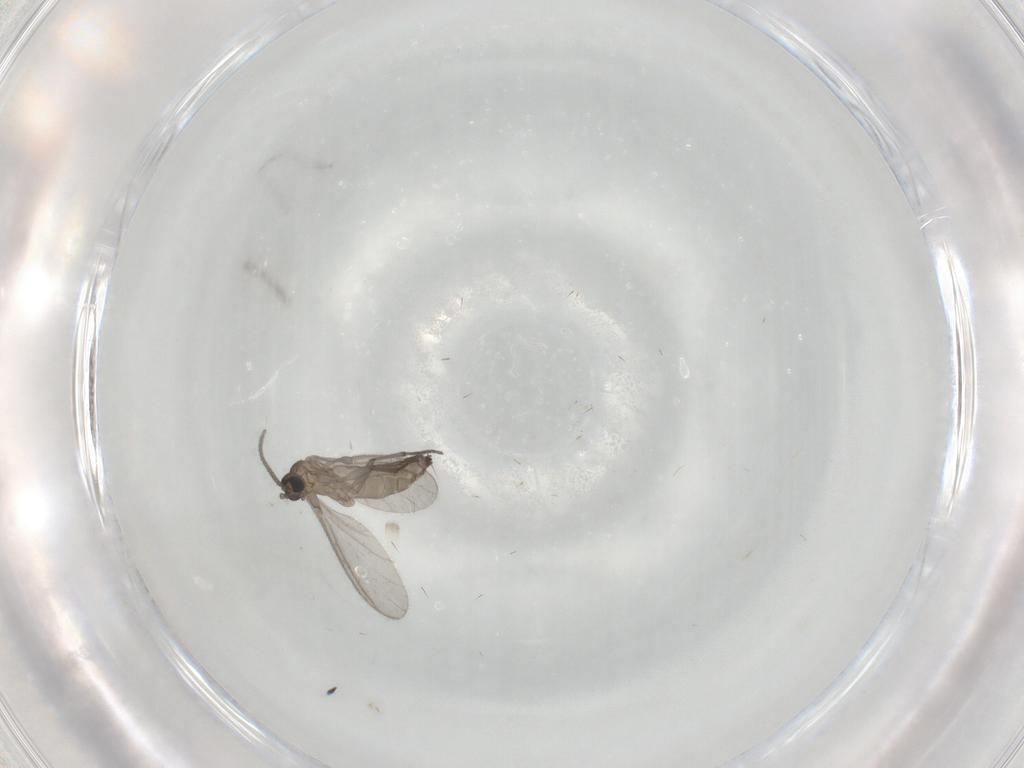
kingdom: Animalia
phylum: Arthropoda
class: Insecta
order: Diptera
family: Sciaridae
